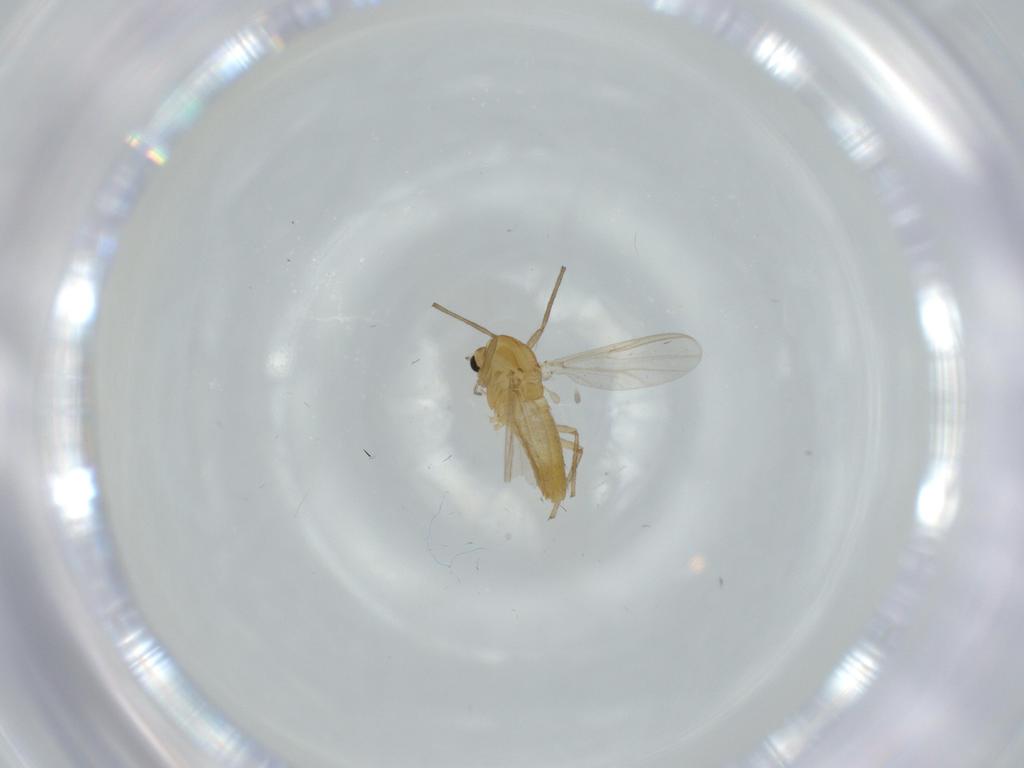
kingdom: Animalia
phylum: Arthropoda
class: Insecta
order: Diptera
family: Chironomidae
